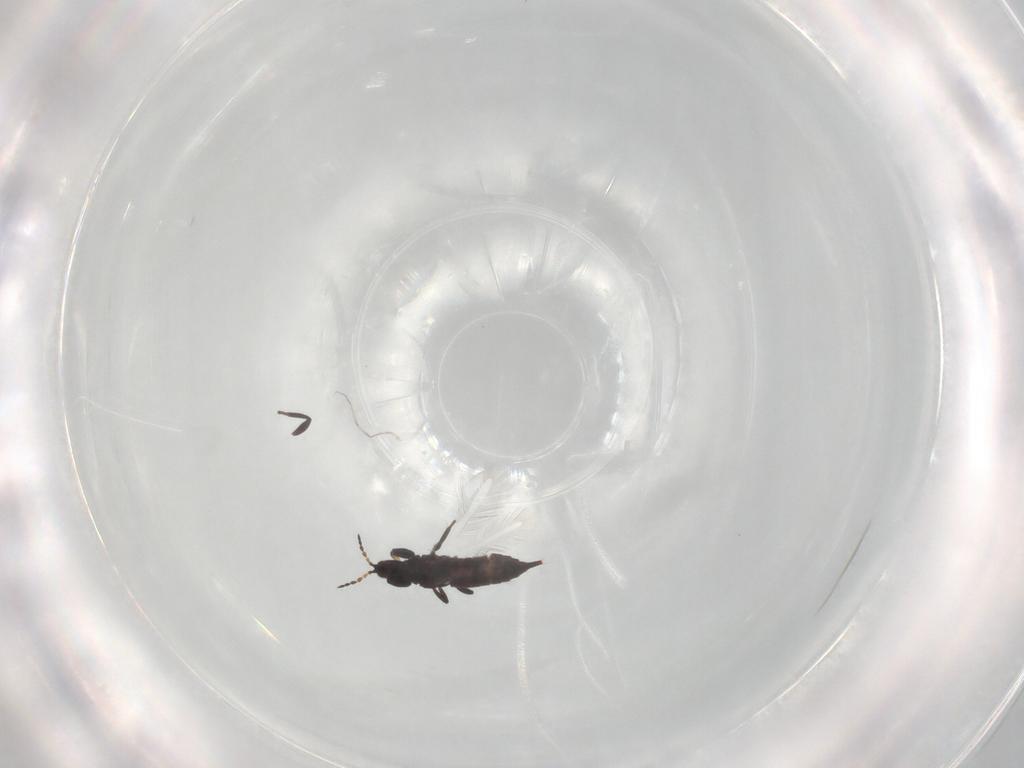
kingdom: Animalia
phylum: Arthropoda
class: Insecta
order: Thysanoptera
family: Phlaeothripidae
